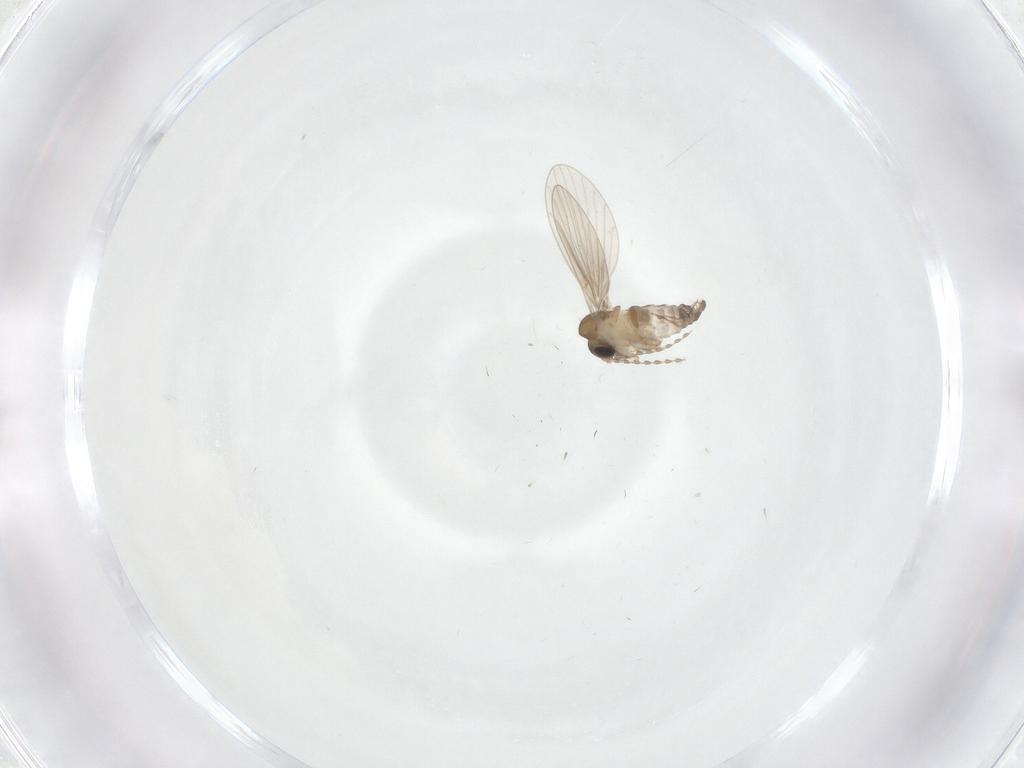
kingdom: Animalia
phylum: Arthropoda
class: Insecta
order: Diptera
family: Psychodidae
